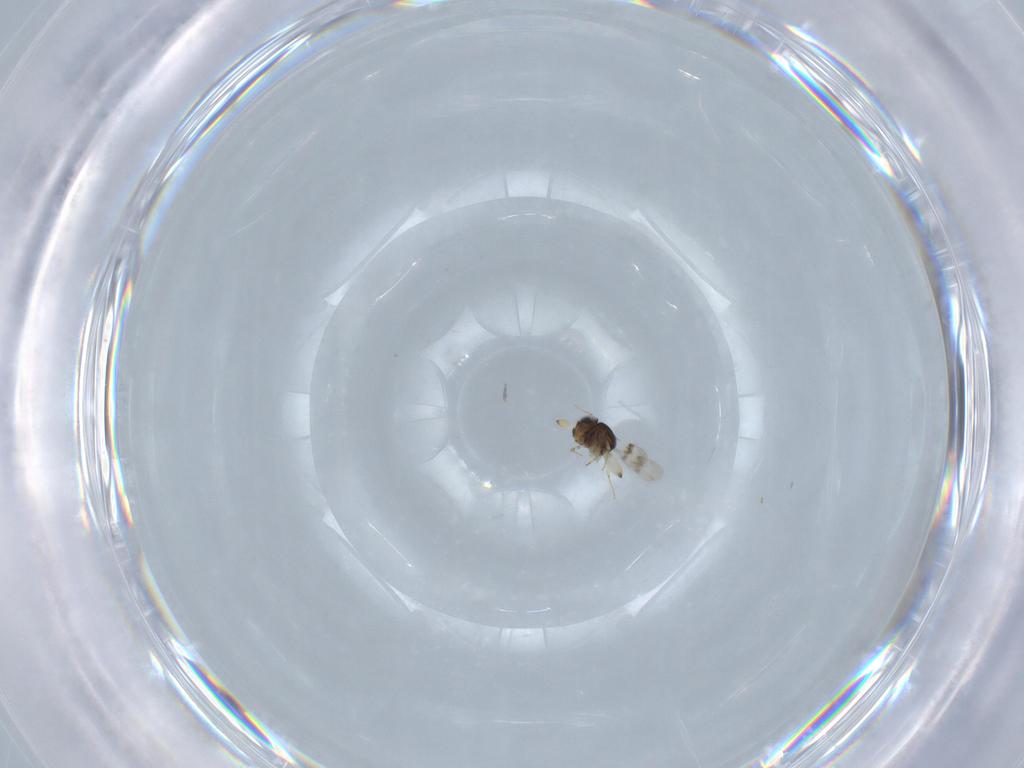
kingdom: Animalia
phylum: Arthropoda
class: Insecta
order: Hymenoptera
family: Scelionidae
